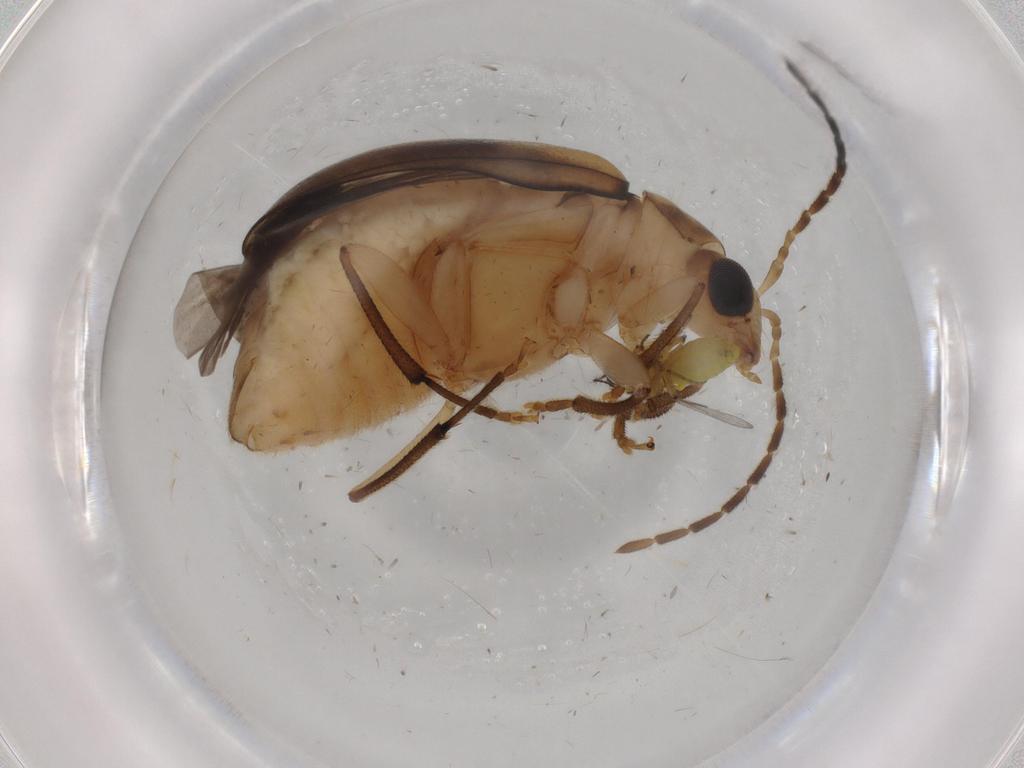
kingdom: Animalia
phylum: Arthropoda
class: Insecta
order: Coleoptera
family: Chrysomelidae
